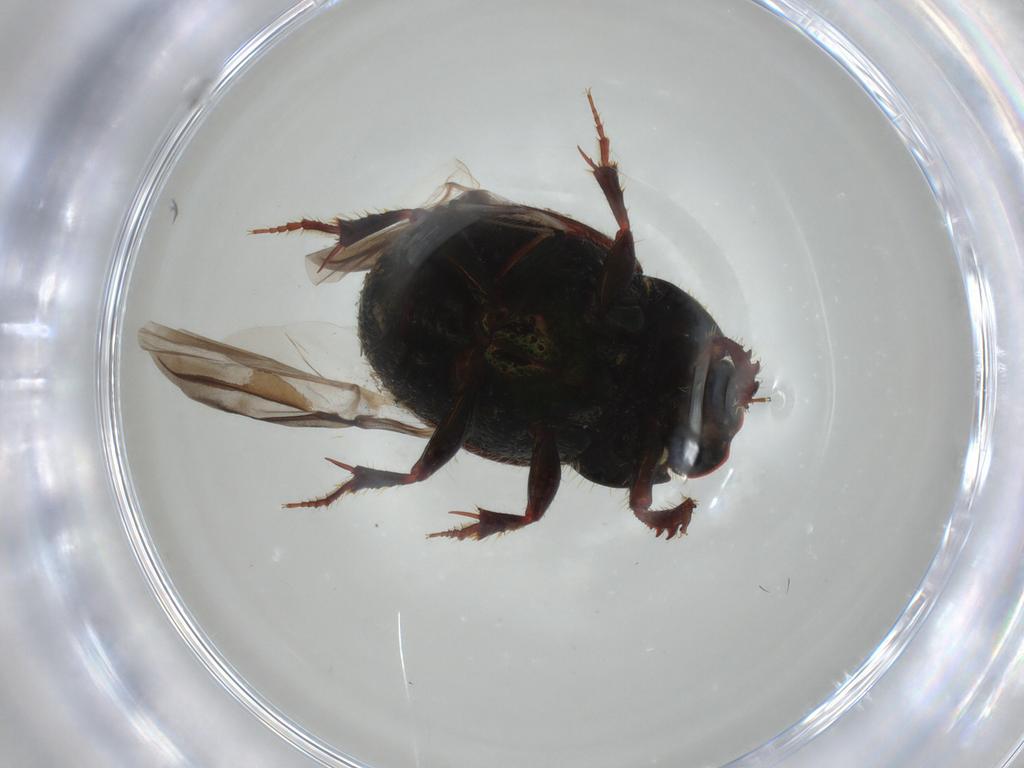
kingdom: Animalia
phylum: Arthropoda
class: Insecta
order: Diptera
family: Chironomidae
